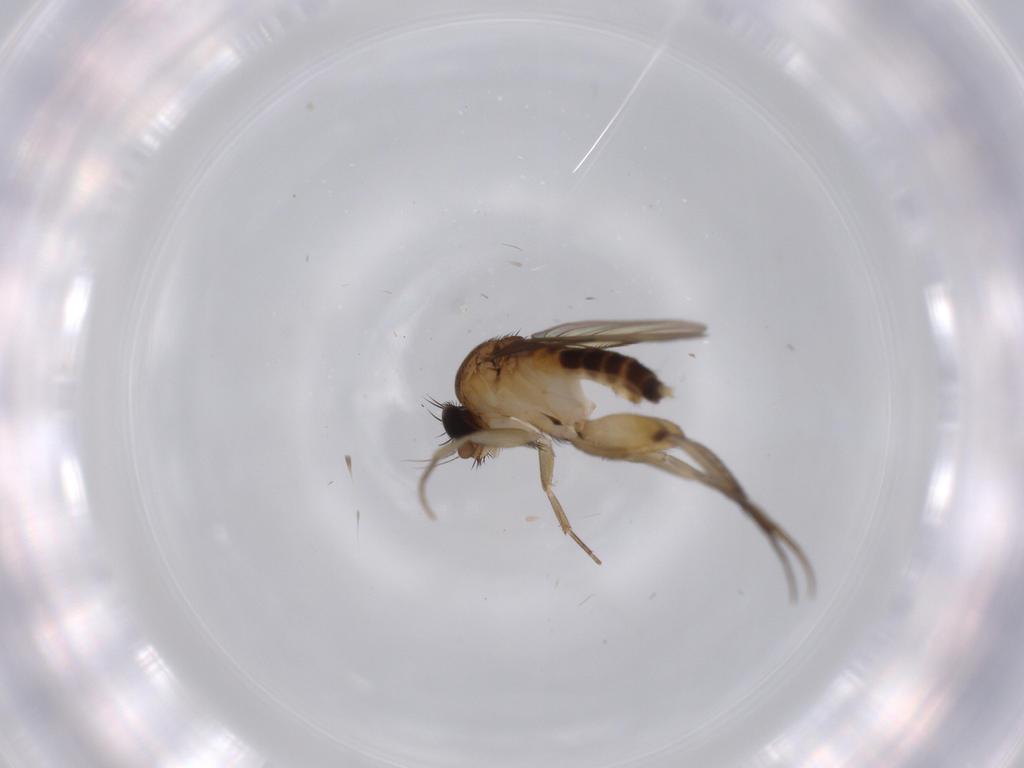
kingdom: Animalia
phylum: Arthropoda
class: Insecta
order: Diptera
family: Phoridae
